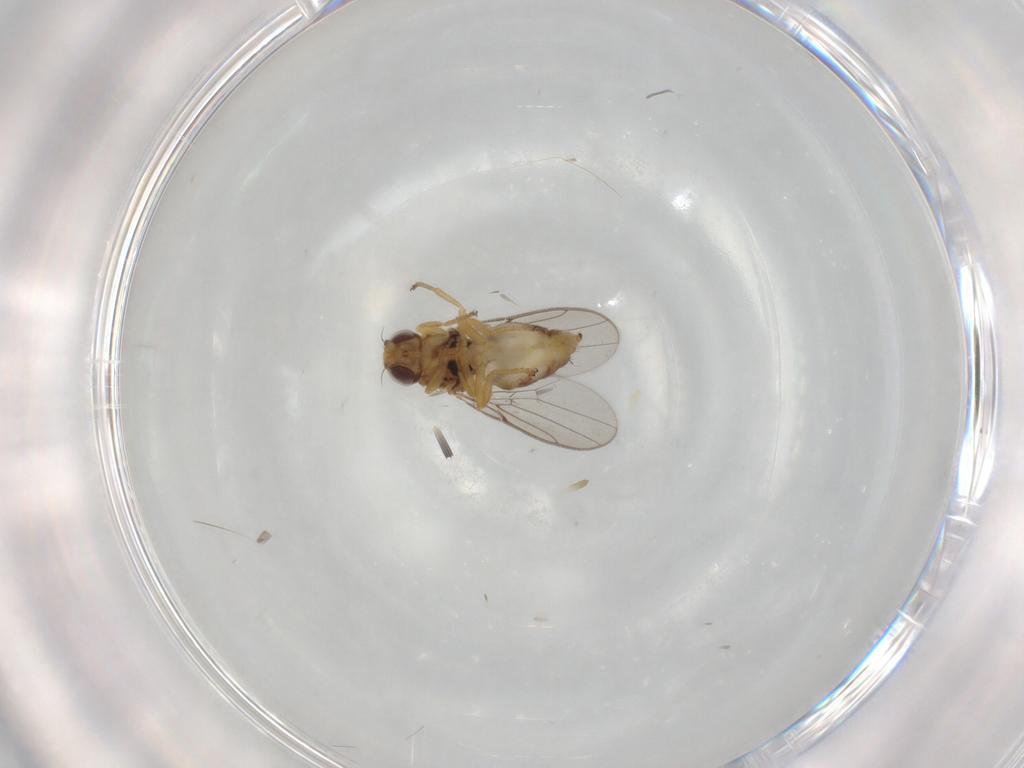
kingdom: Animalia
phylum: Arthropoda
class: Insecta
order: Diptera
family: Chloropidae
